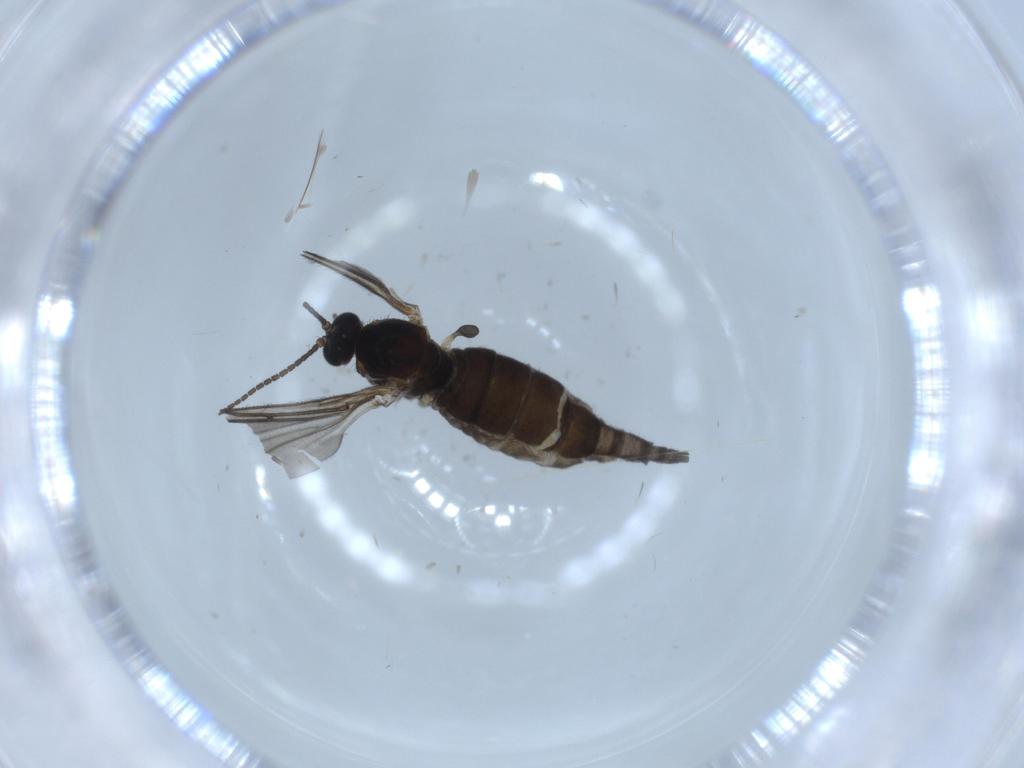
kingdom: Animalia
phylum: Arthropoda
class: Insecta
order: Diptera
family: Sciaridae
